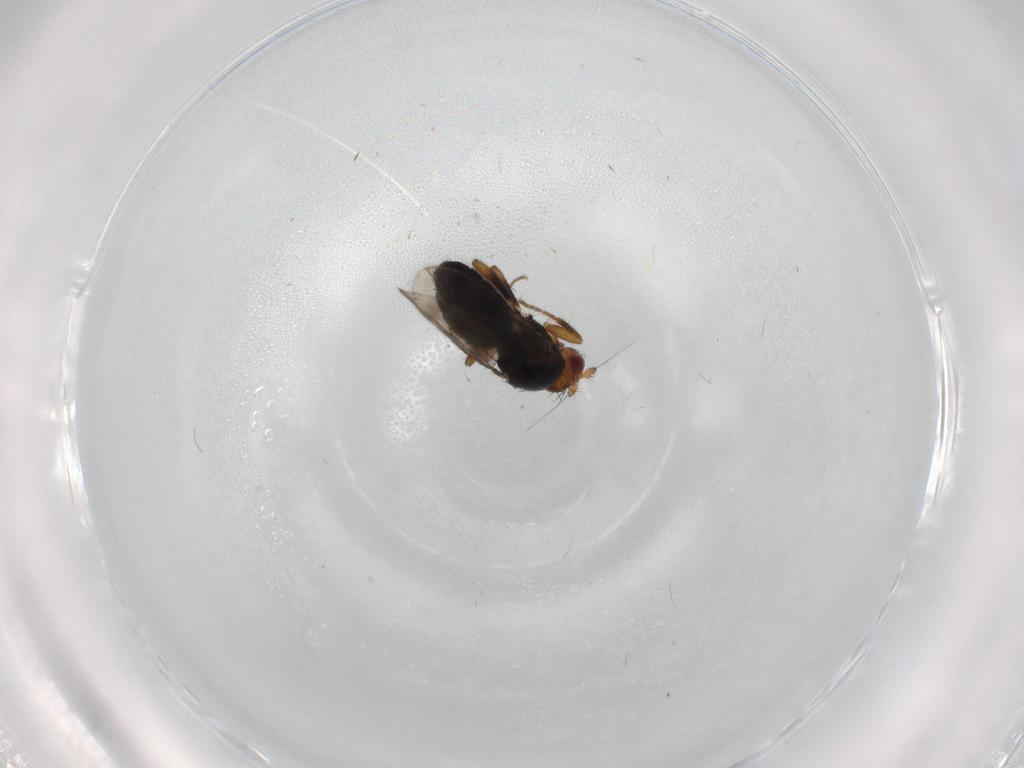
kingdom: Animalia
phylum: Arthropoda
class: Insecta
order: Diptera
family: Sphaeroceridae
